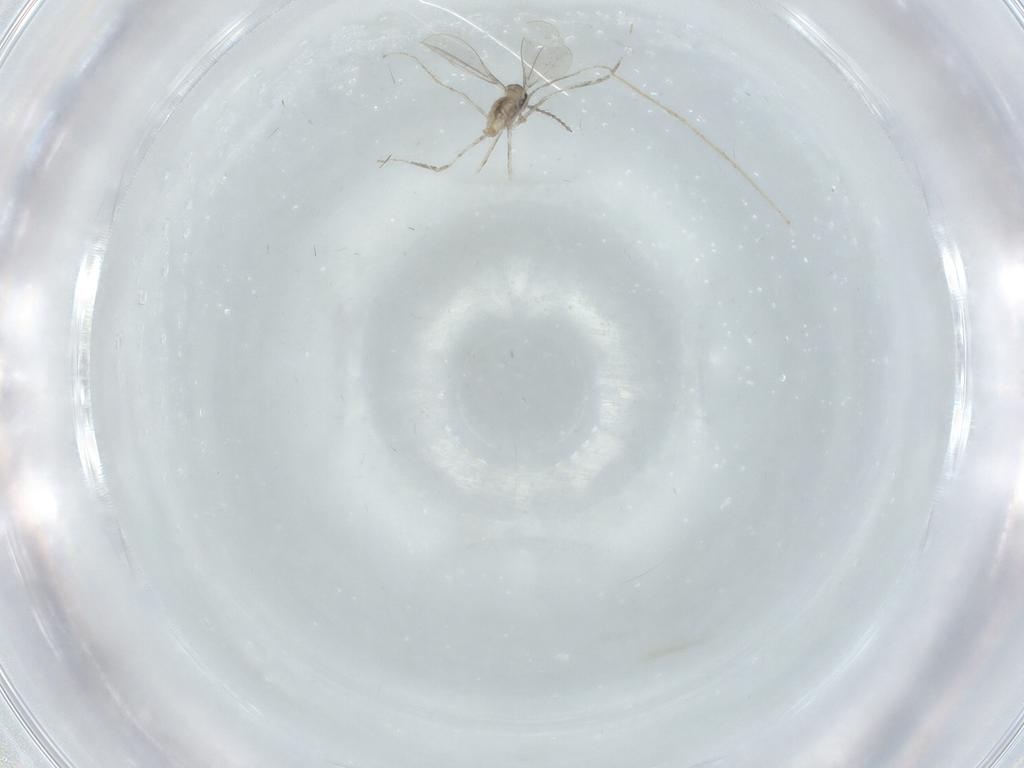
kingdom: Animalia
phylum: Arthropoda
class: Insecta
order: Diptera
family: Cecidomyiidae
